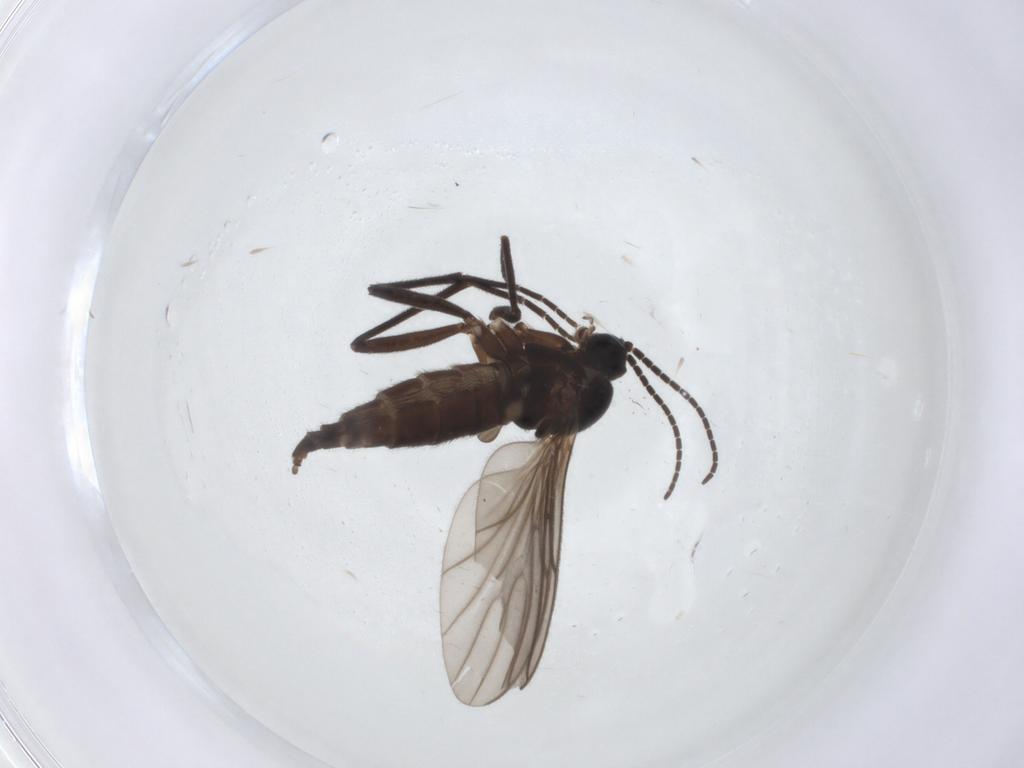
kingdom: Animalia
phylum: Arthropoda
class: Insecta
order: Diptera
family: Sciaridae
